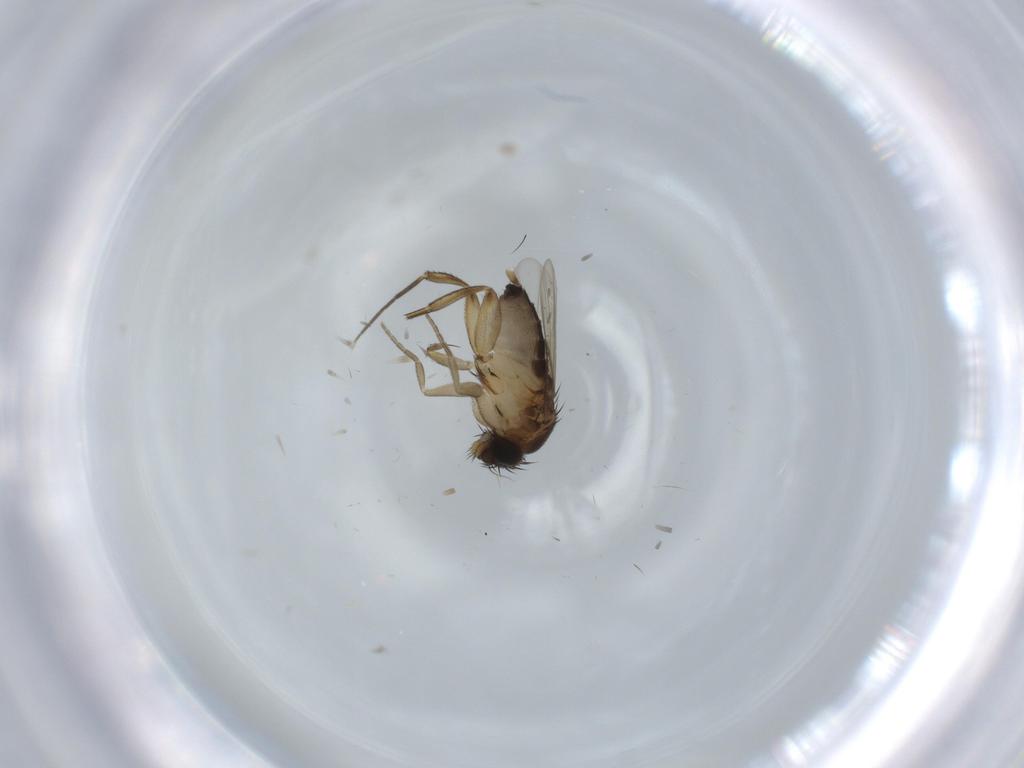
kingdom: Animalia
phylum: Arthropoda
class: Insecta
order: Diptera
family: Phoridae
